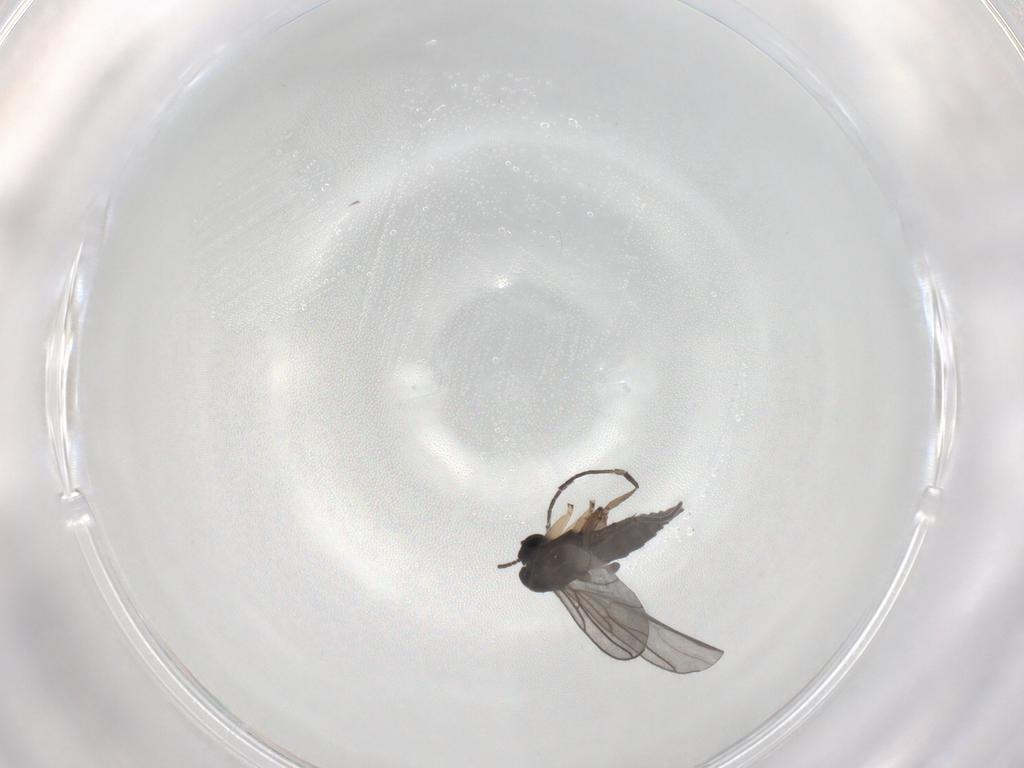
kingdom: Animalia
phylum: Arthropoda
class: Insecta
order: Diptera
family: Sciaridae
